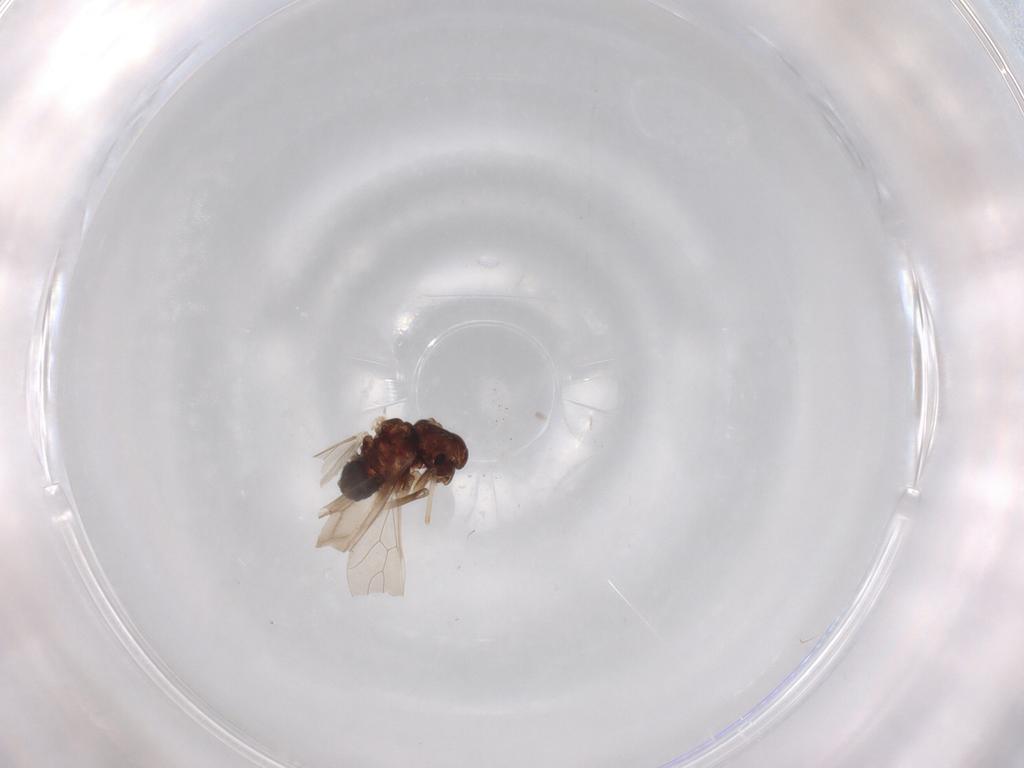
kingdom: Animalia
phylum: Arthropoda
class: Insecta
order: Psocodea
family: Caeciliusidae
